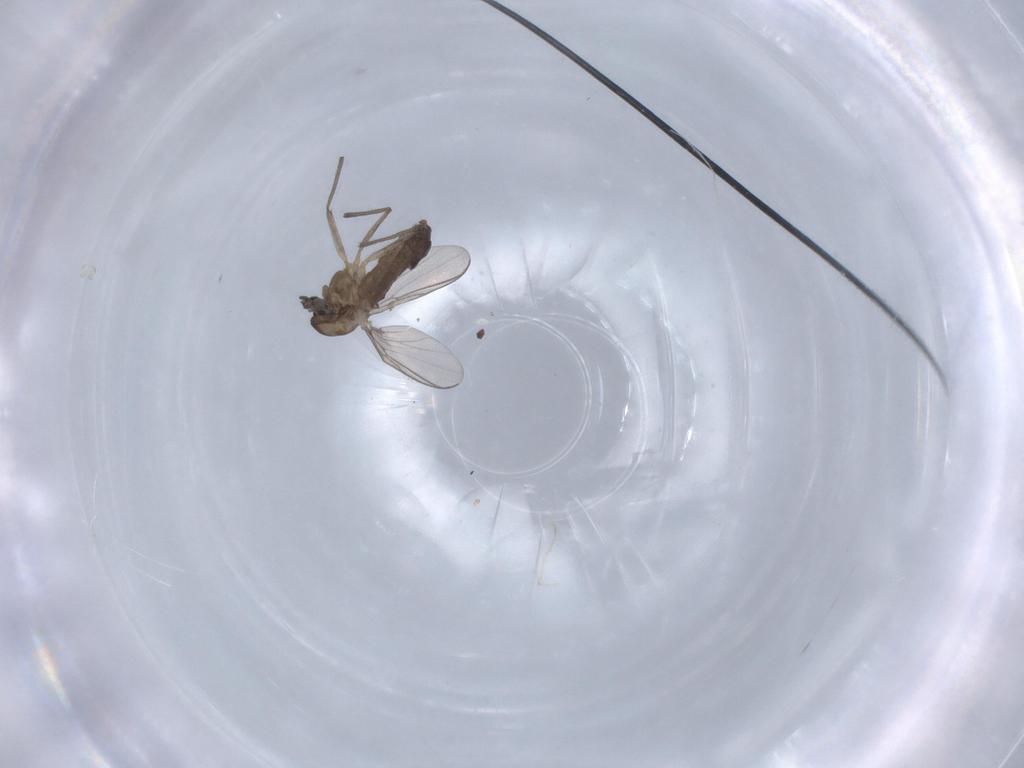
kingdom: Animalia
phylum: Arthropoda
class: Insecta
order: Diptera
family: Chironomidae
